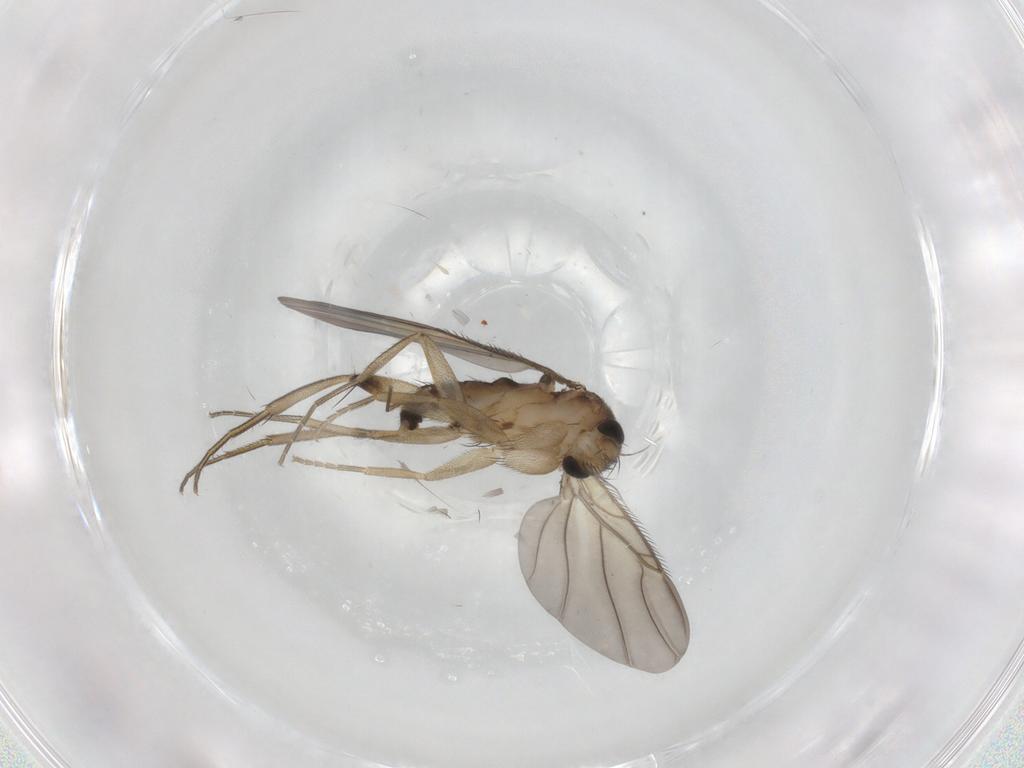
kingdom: Animalia
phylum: Arthropoda
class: Insecta
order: Diptera
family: Phoridae
